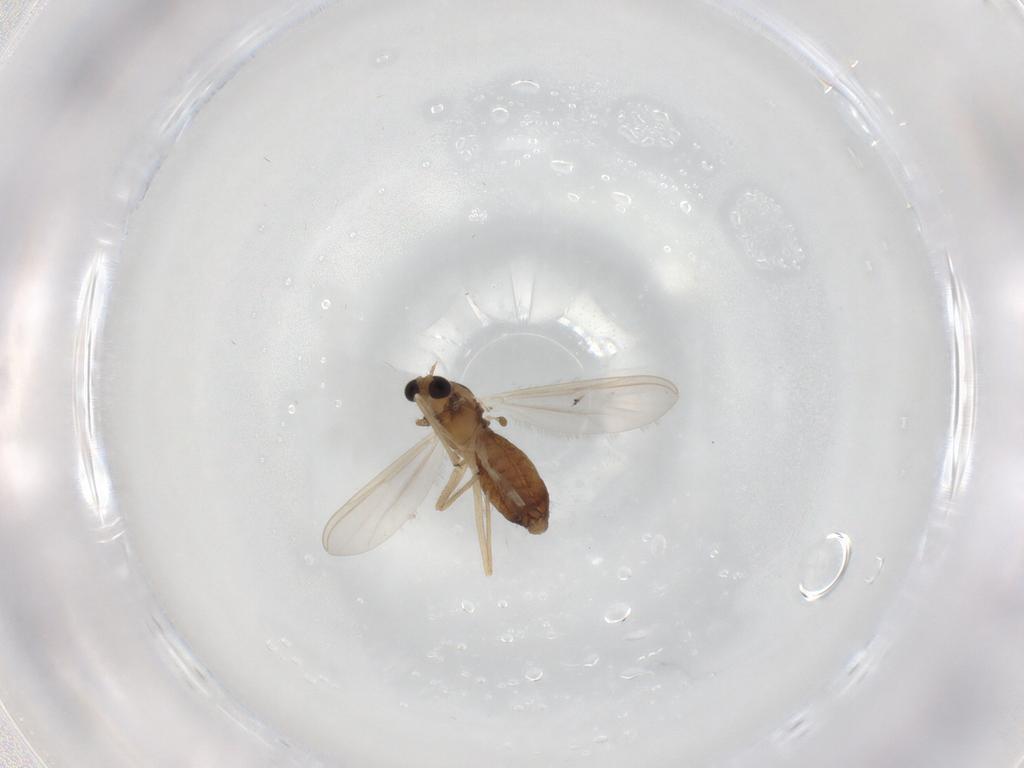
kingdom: Animalia
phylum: Arthropoda
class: Insecta
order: Diptera
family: Chironomidae
